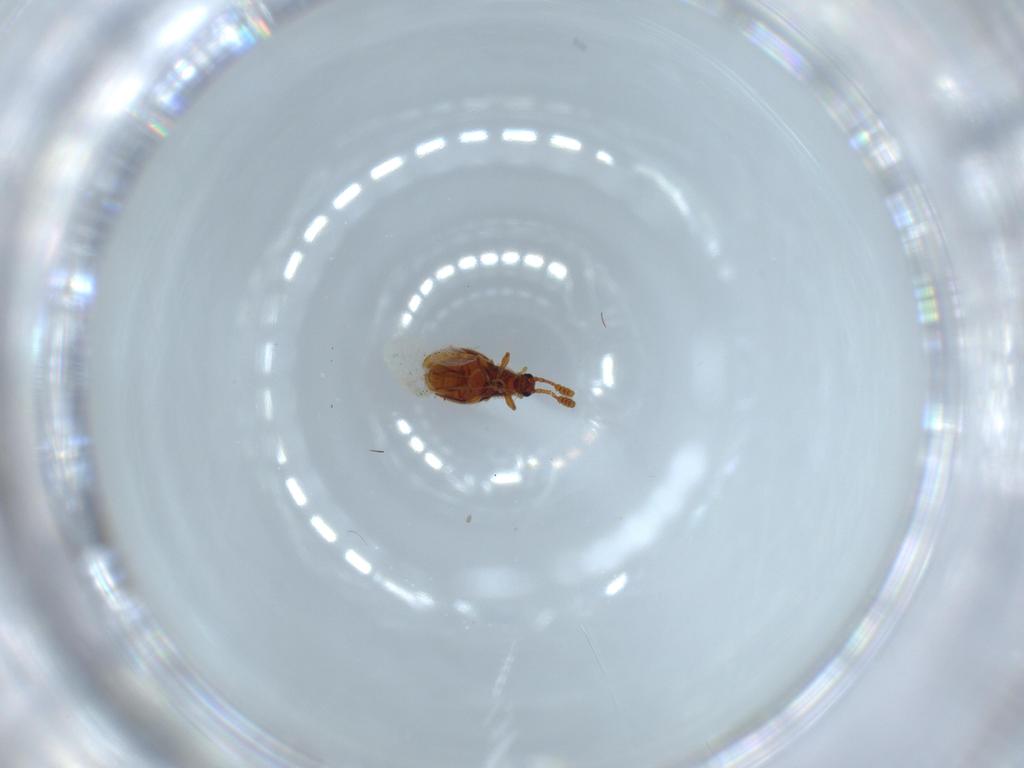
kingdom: Animalia
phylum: Arthropoda
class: Insecta
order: Coleoptera
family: Staphylinidae
